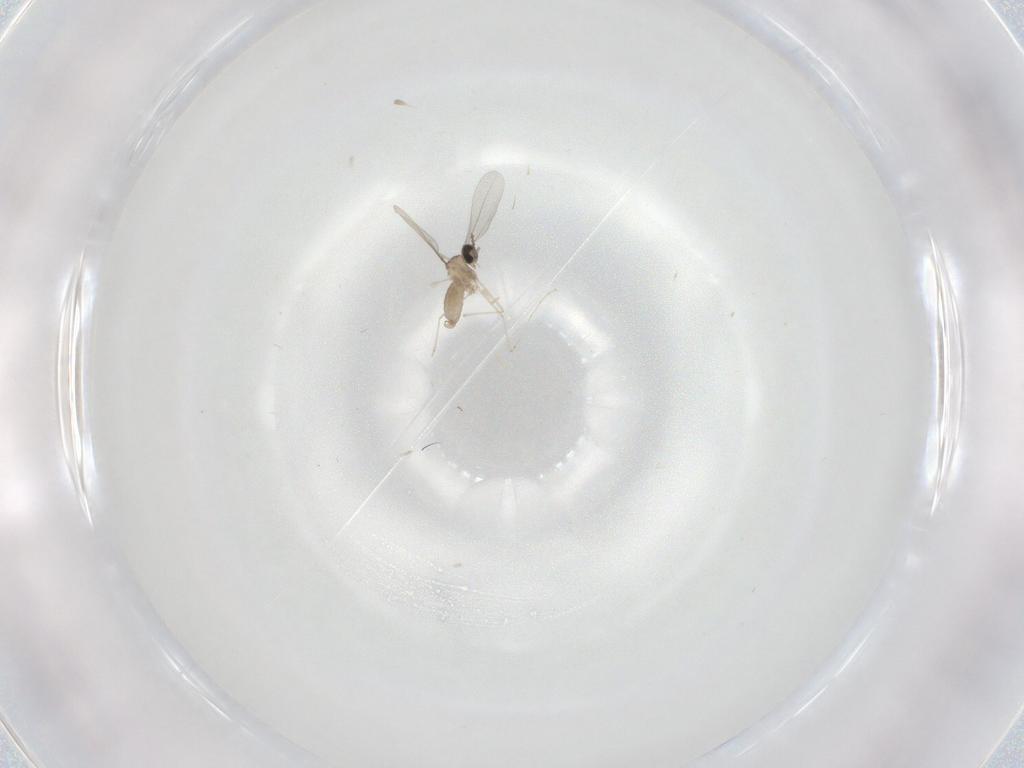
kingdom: Animalia
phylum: Arthropoda
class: Insecta
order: Diptera
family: Cecidomyiidae
